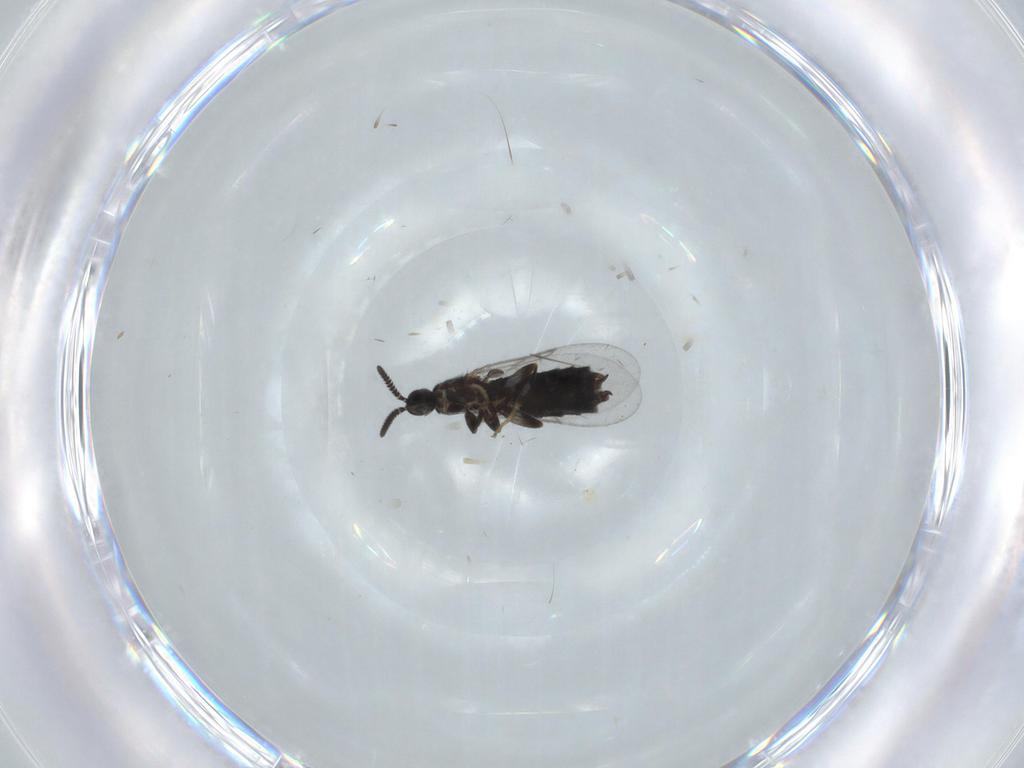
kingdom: Animalia
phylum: Arthropoda
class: Insecta
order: Diptera
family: Scatopsidae
